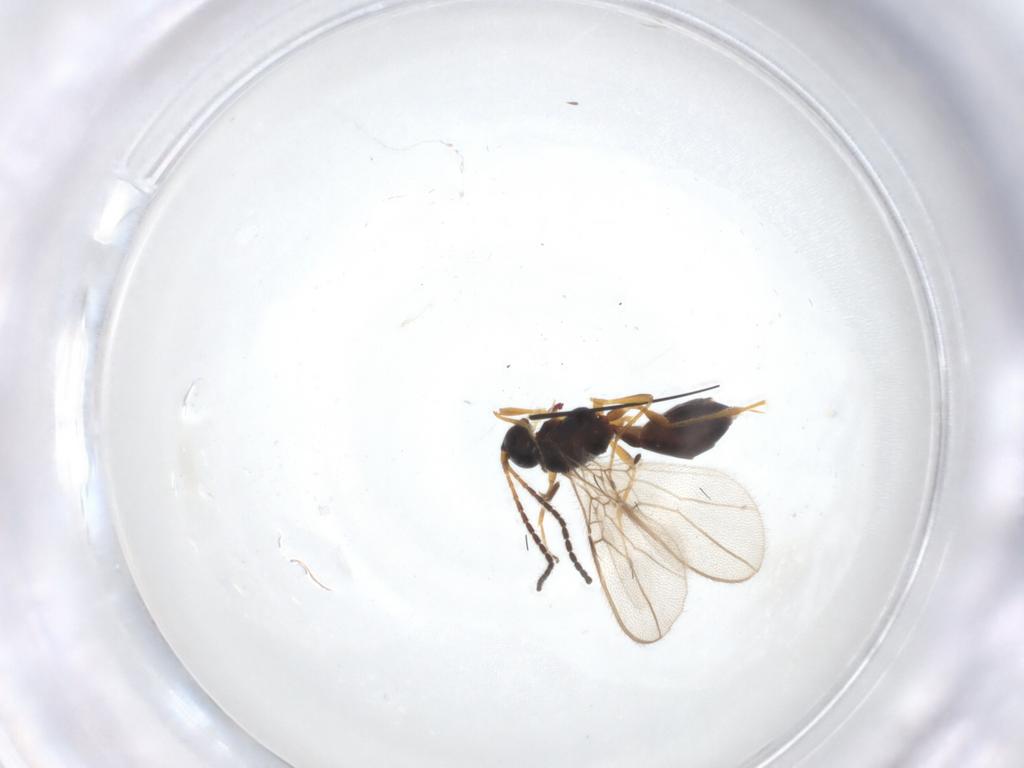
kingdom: Animalia
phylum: Arthropoda
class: Insecta
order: Hymenoptera
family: Braconidae
